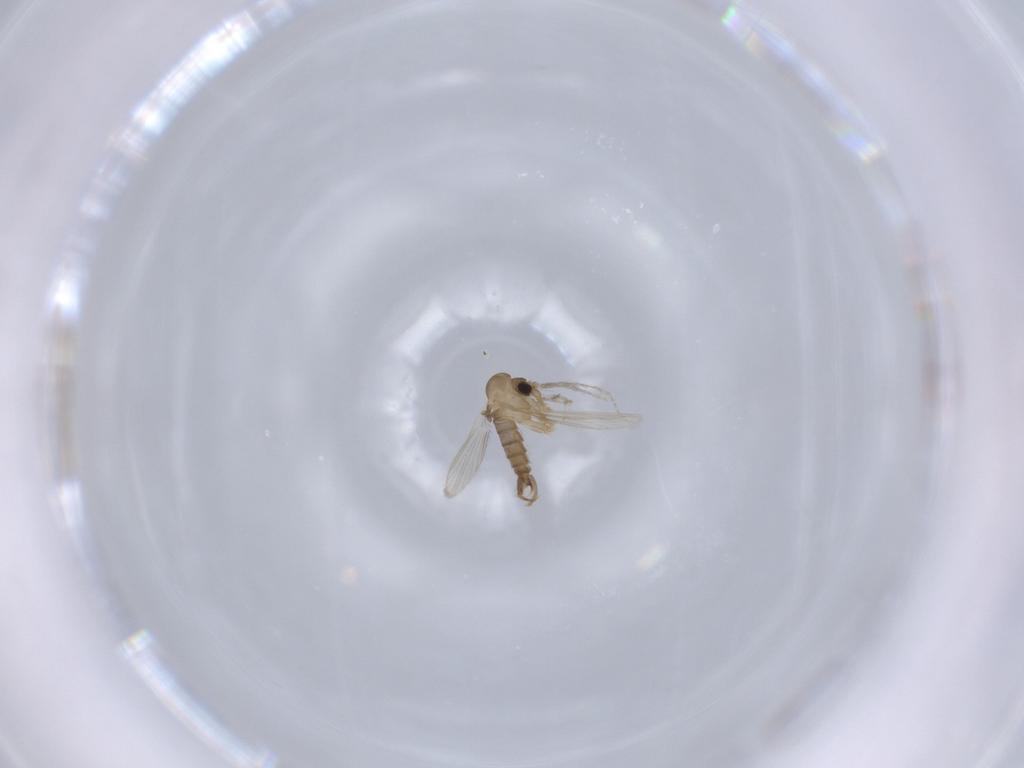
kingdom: Animalia
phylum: Arthropoda
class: Insecta
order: Diptera
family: Psychodidae
